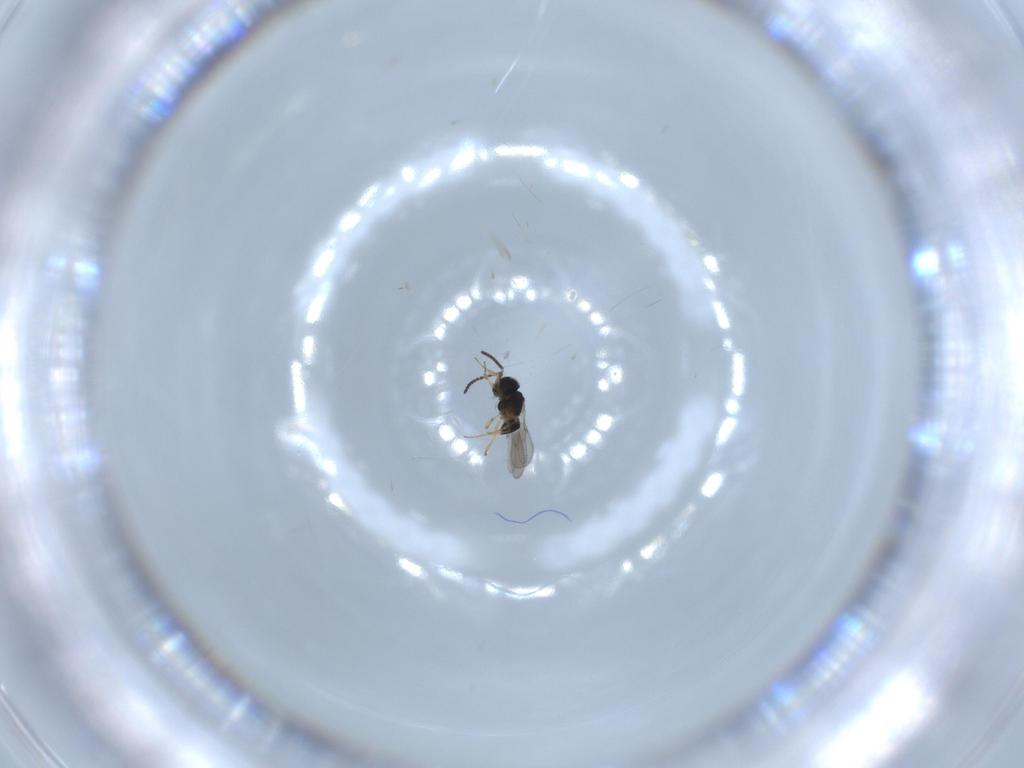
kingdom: Animalia
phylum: Arthropoda
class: Insecta
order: Hymenoptera
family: Scelionidae
